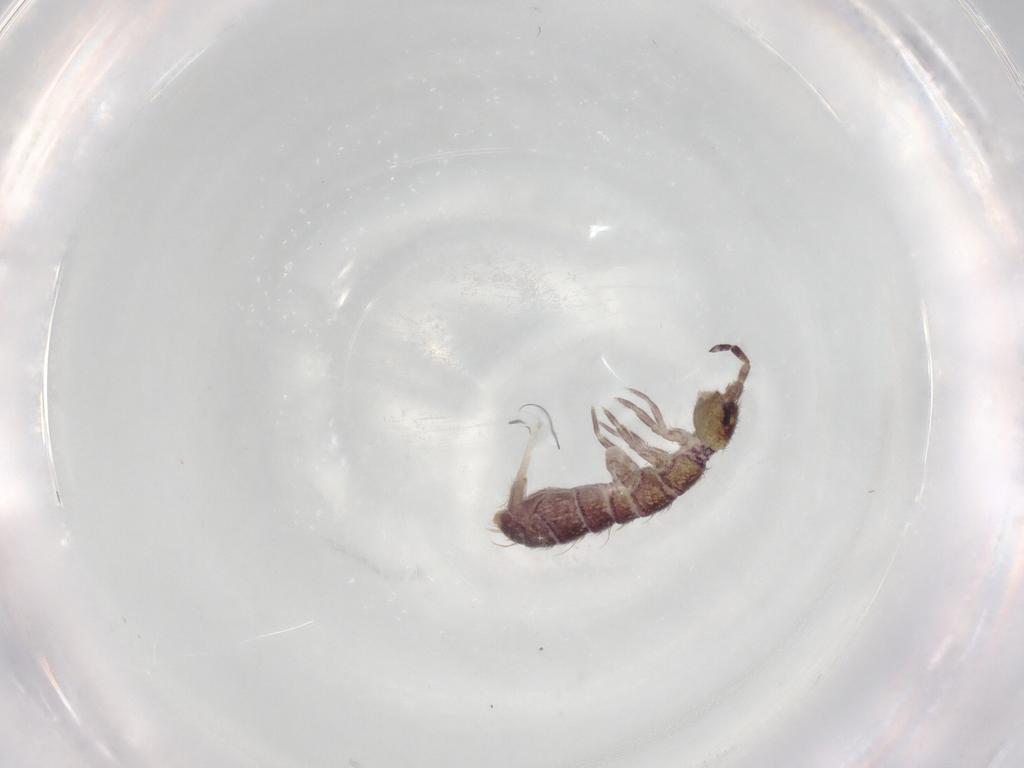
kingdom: Animalia
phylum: Arthropoda
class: Collembola
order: Entomobryomorpha
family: Isotomidae
